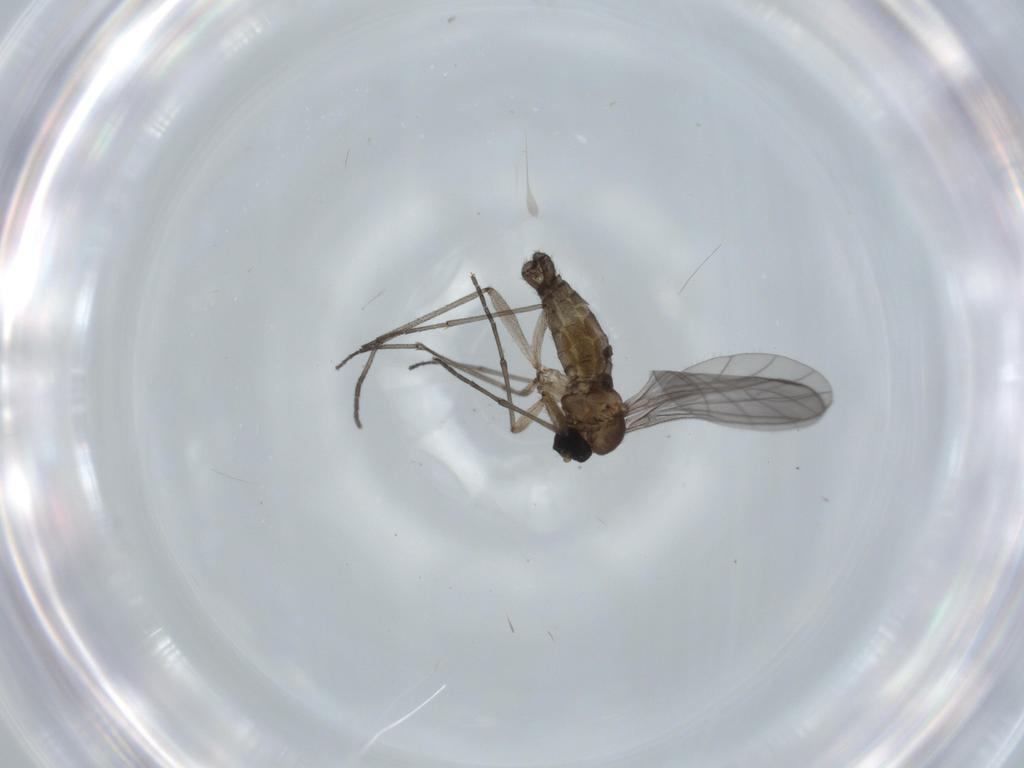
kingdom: Animalia
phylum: Arthropoda
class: Insecta
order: Diptera
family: Sciaridae
